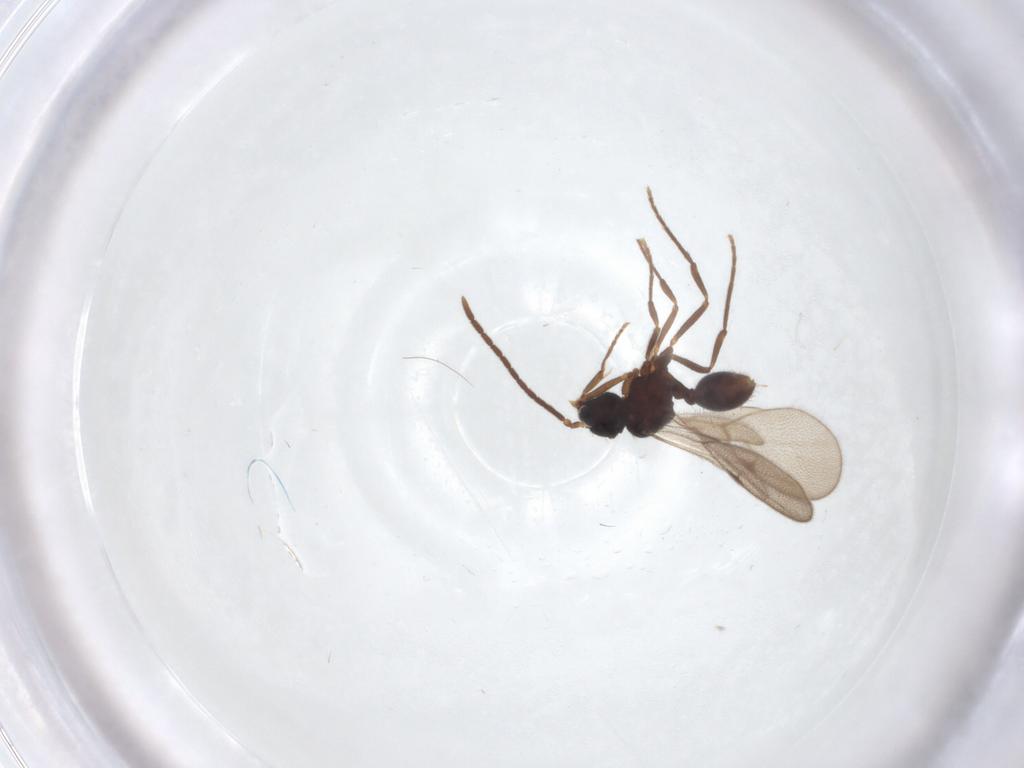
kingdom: Animalia
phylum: Arthropoda
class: Insecta
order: Hymenoptera
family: Formicidae
